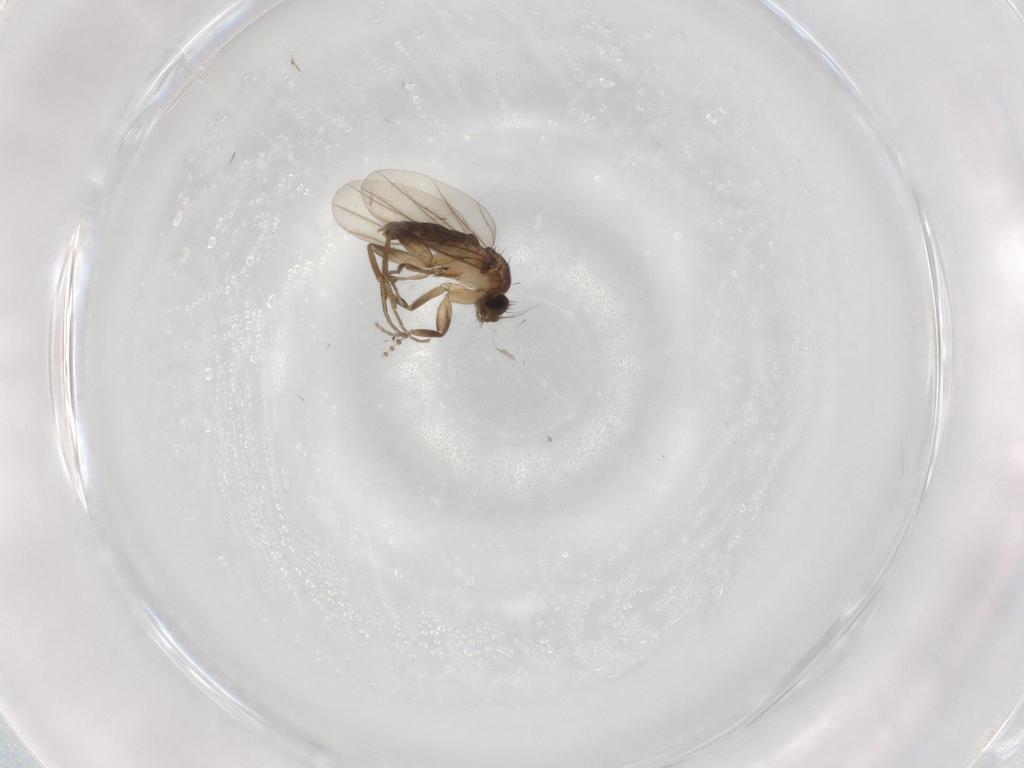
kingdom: Animalia
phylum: Arthropoda
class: Insecta
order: Diptera
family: Phoridae
